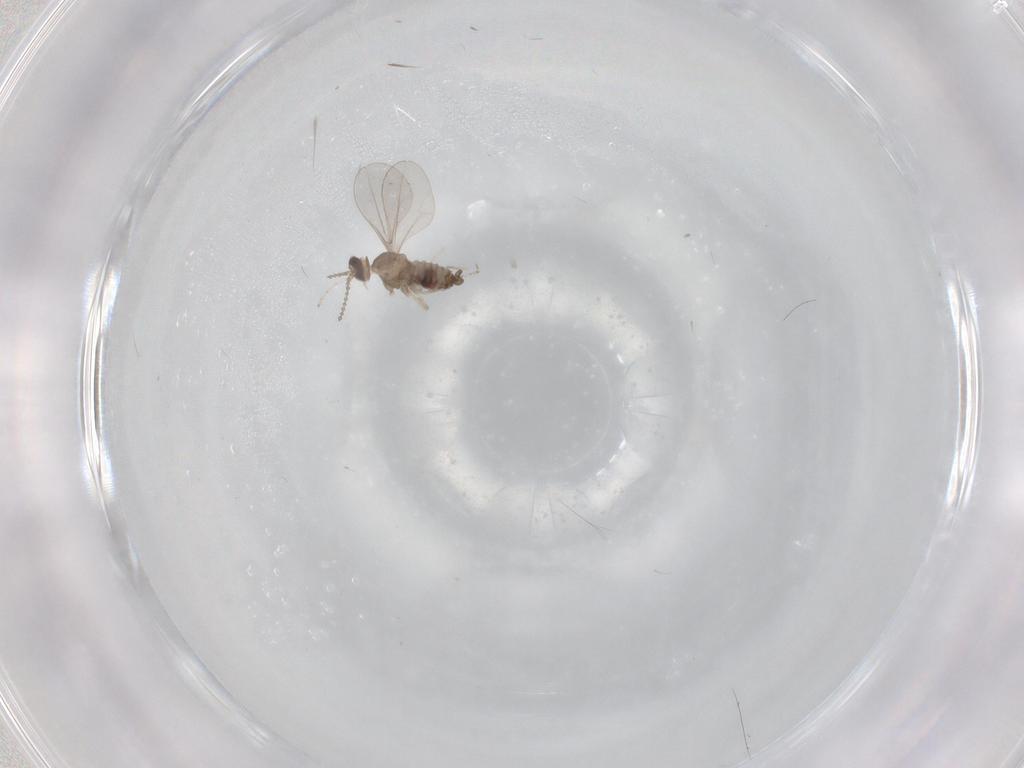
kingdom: Animalia
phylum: Arthropoda
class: Insecta
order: Diptera
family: Cecidomyiidae
